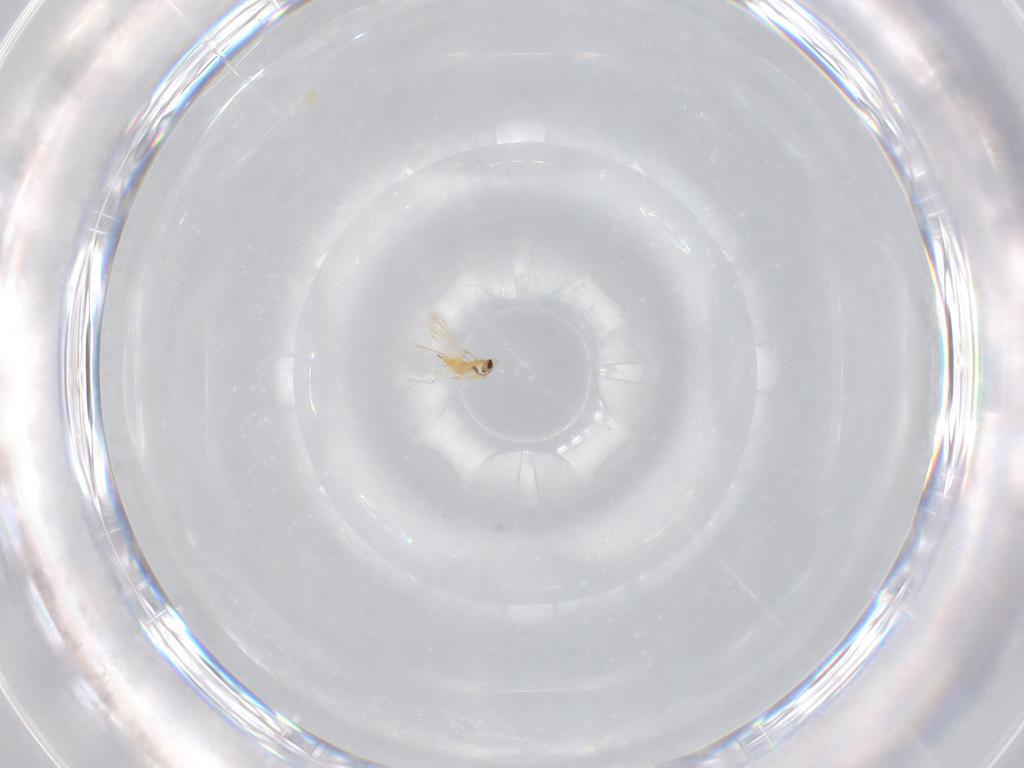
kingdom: Animalia
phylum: Arthropoda
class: Insecta
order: Hymenoptera
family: Mymaridae
